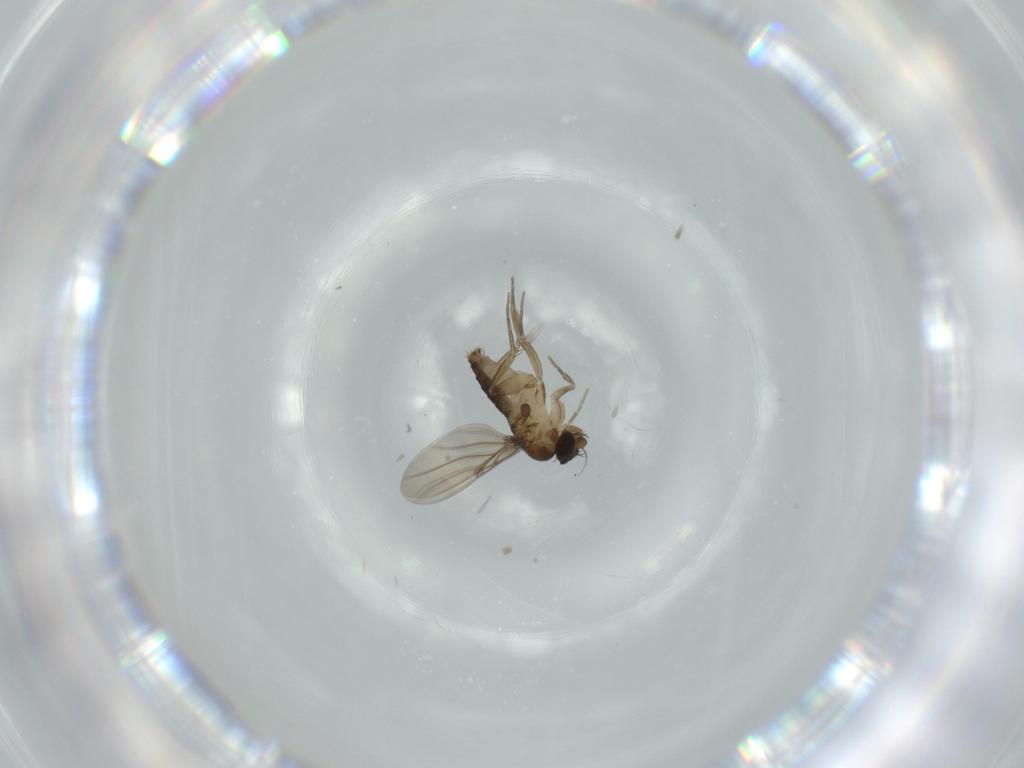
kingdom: Animalia
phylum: Arthropoda
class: Insecta
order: Diptera
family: Phoridae
